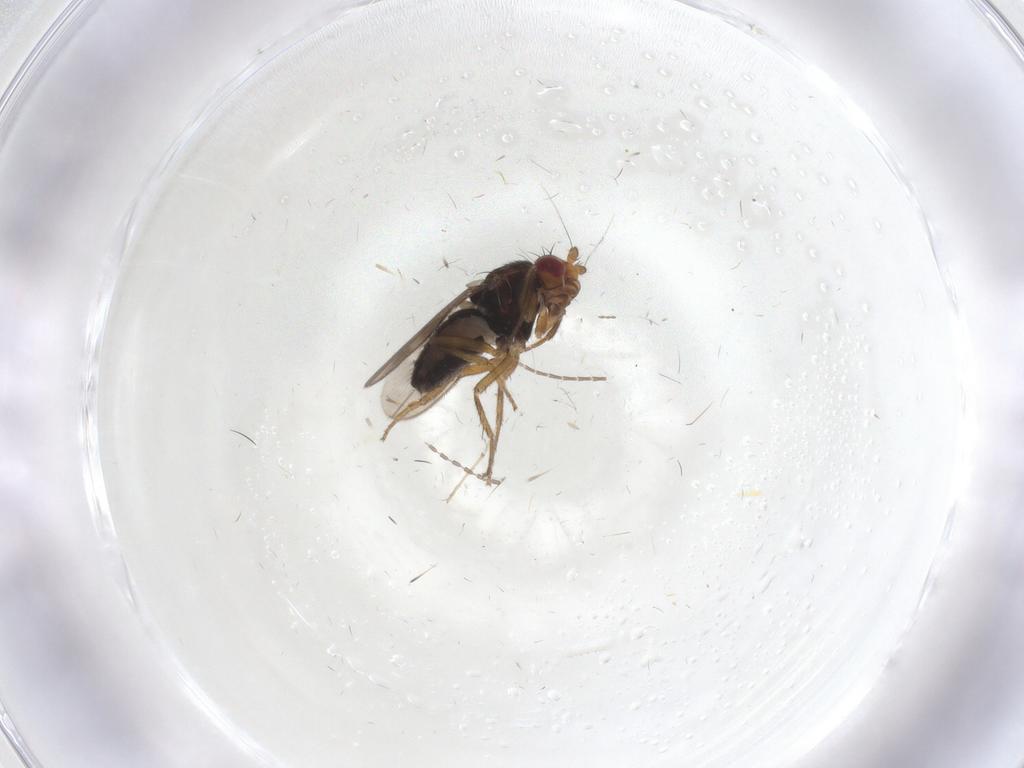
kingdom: Animalia
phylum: Arthropoda
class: Insecta
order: Diptera
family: Sphaeroceridae
